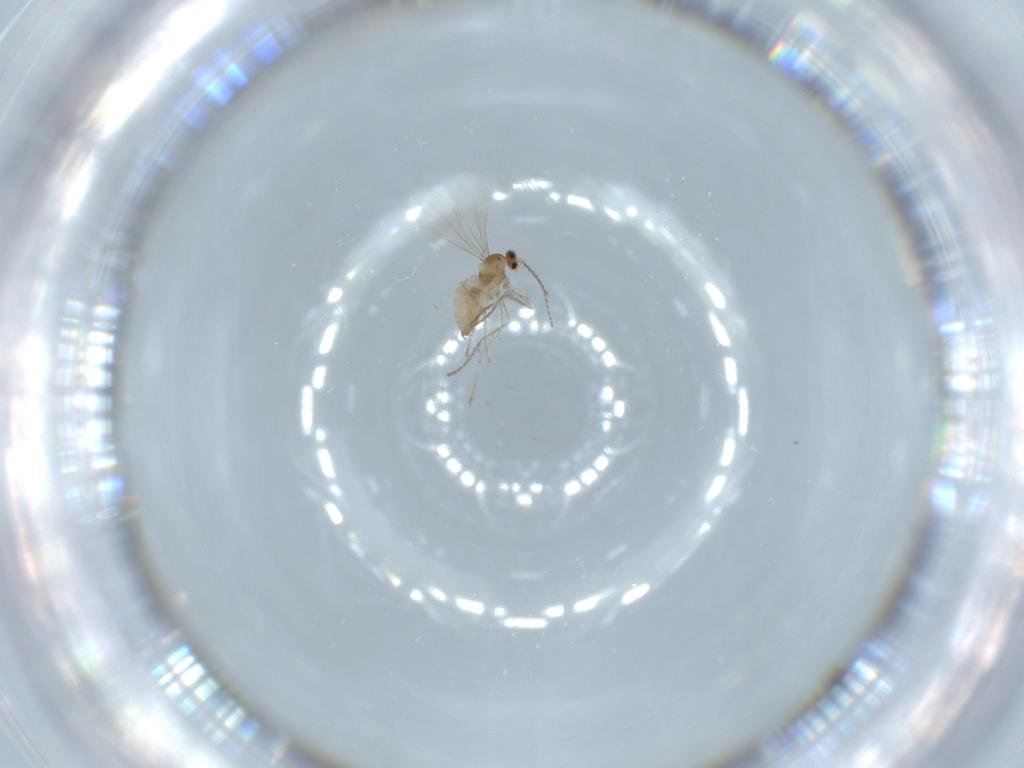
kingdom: Animalia
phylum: Arthropoda
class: Insecta
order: Diptera
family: Cecidomyiidae
